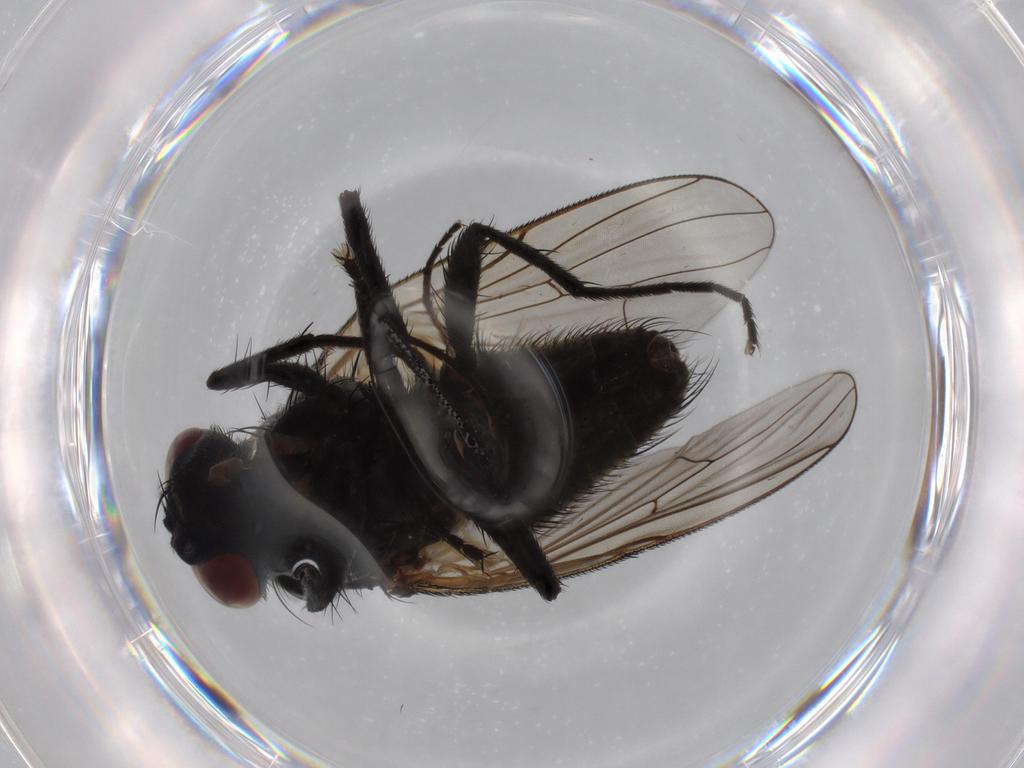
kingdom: Animalia
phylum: Arthropoda
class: Insecta
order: Diptera
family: Muscidae
